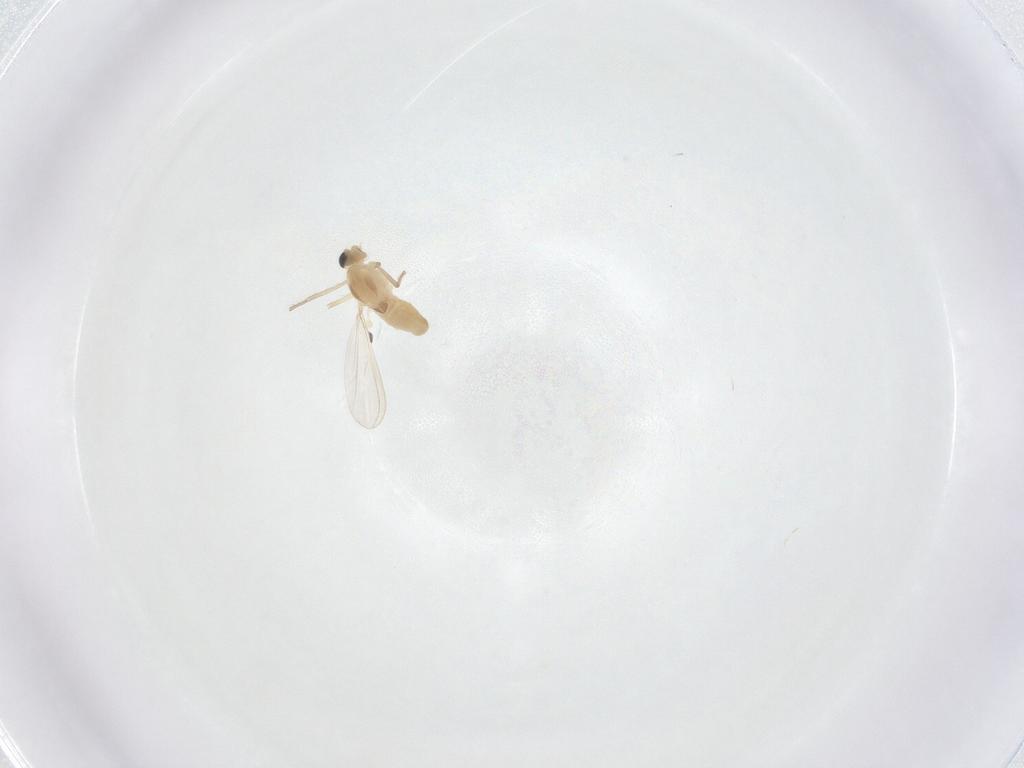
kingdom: Animalia
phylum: Arthropoda
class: Insecta
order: Diptera
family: Chironomidae
